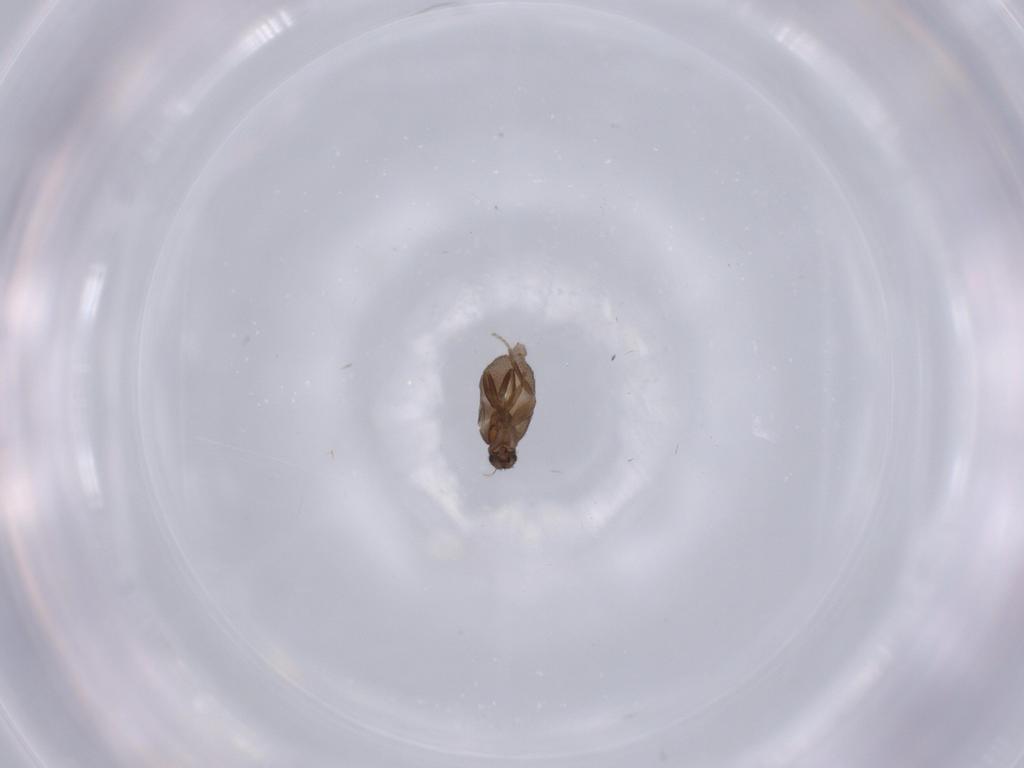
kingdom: Animalia
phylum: Arthropoda
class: Insecta
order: Diptera
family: Phoridae
